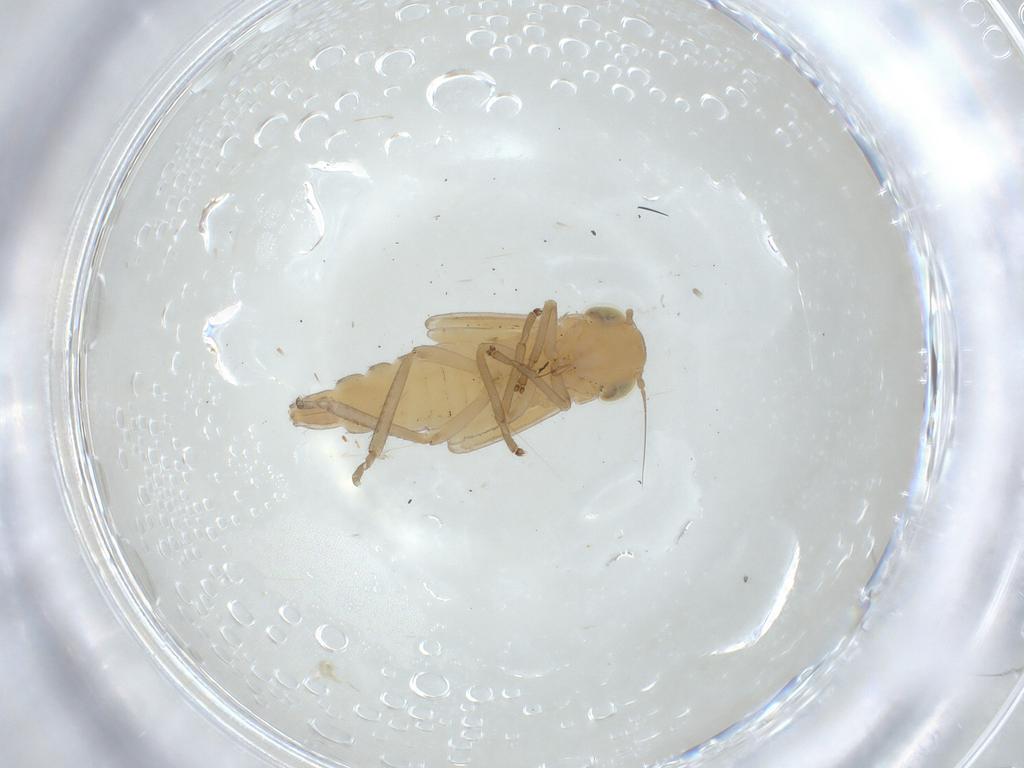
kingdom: Animalia
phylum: Arthropoda
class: Insecta
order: Hemiptera
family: Cicadellidae
